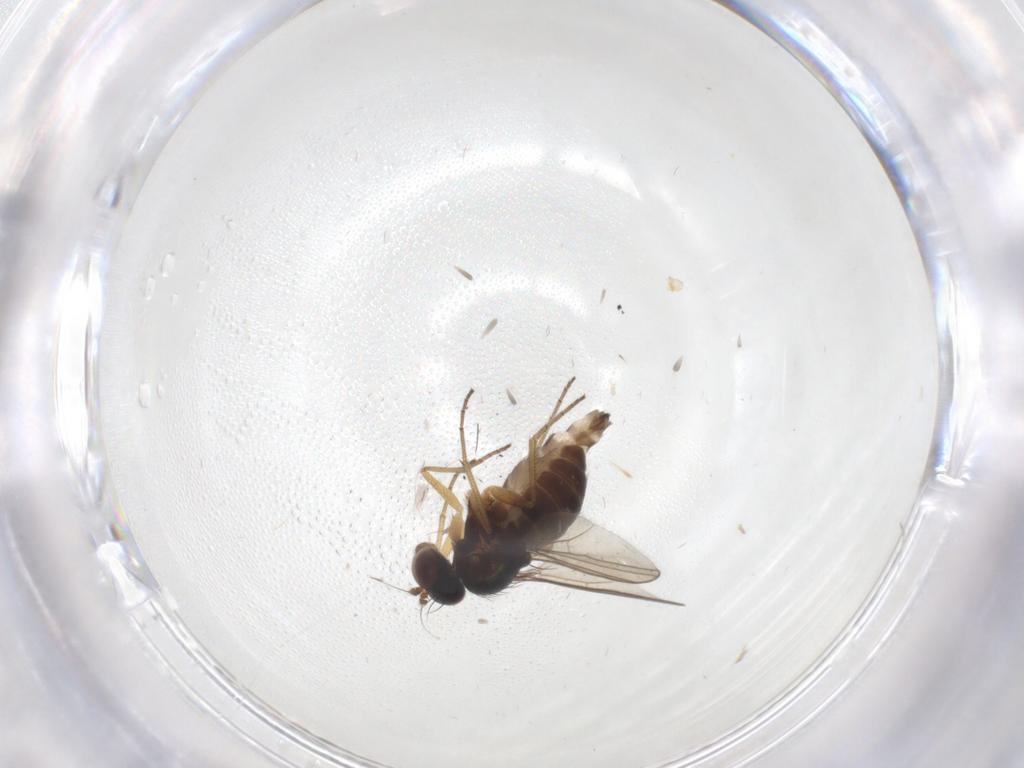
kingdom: Animalia
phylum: Arthropoda
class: Insecta
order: Diptera
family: Dolichopodidae
